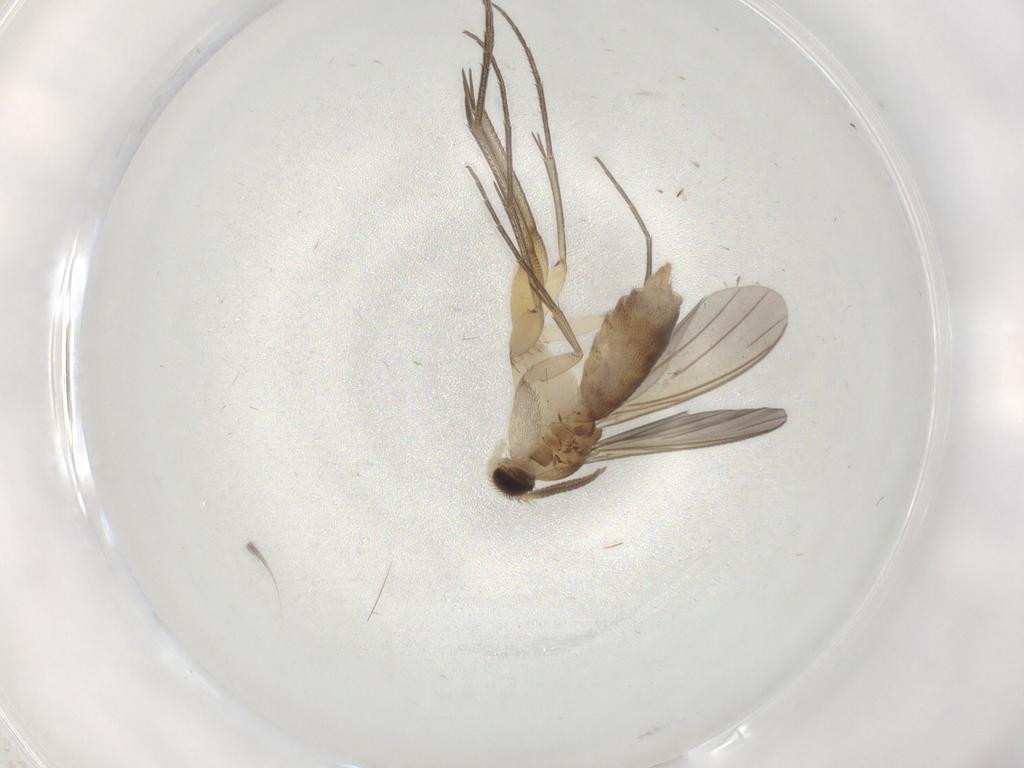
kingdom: Animalia
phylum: Arthropoda
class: Insecta
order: Diptera
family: Mycetophilidae
